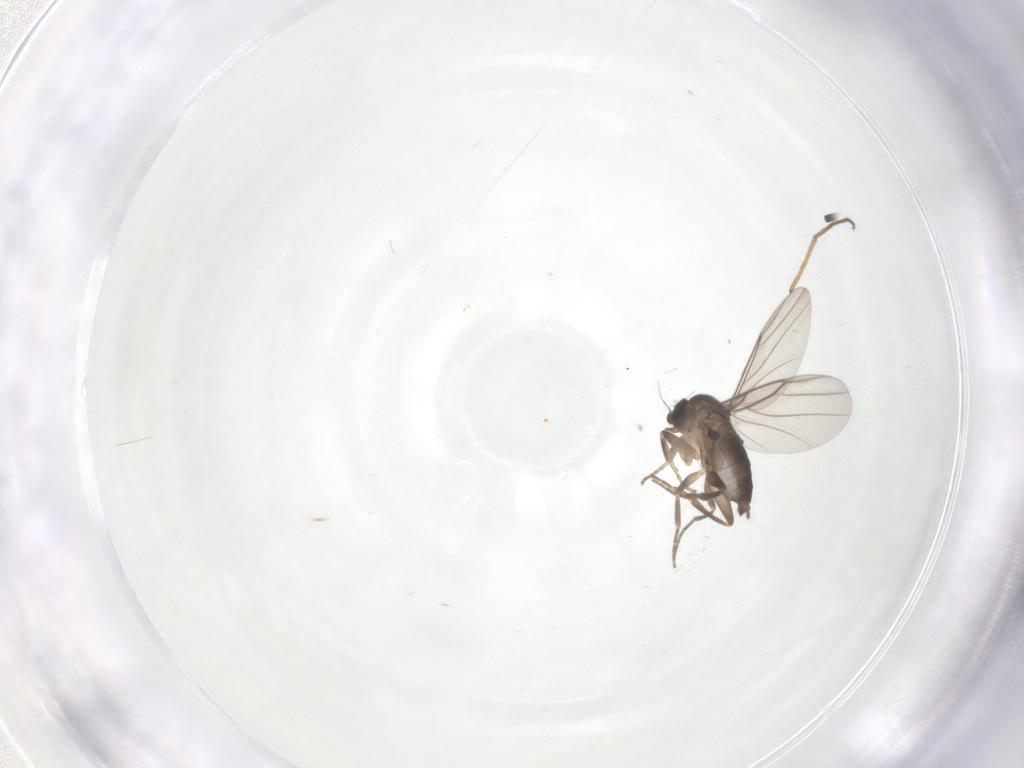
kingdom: Animalia
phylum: Arthropoda
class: Insecta
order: Diptera
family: Phoridae
